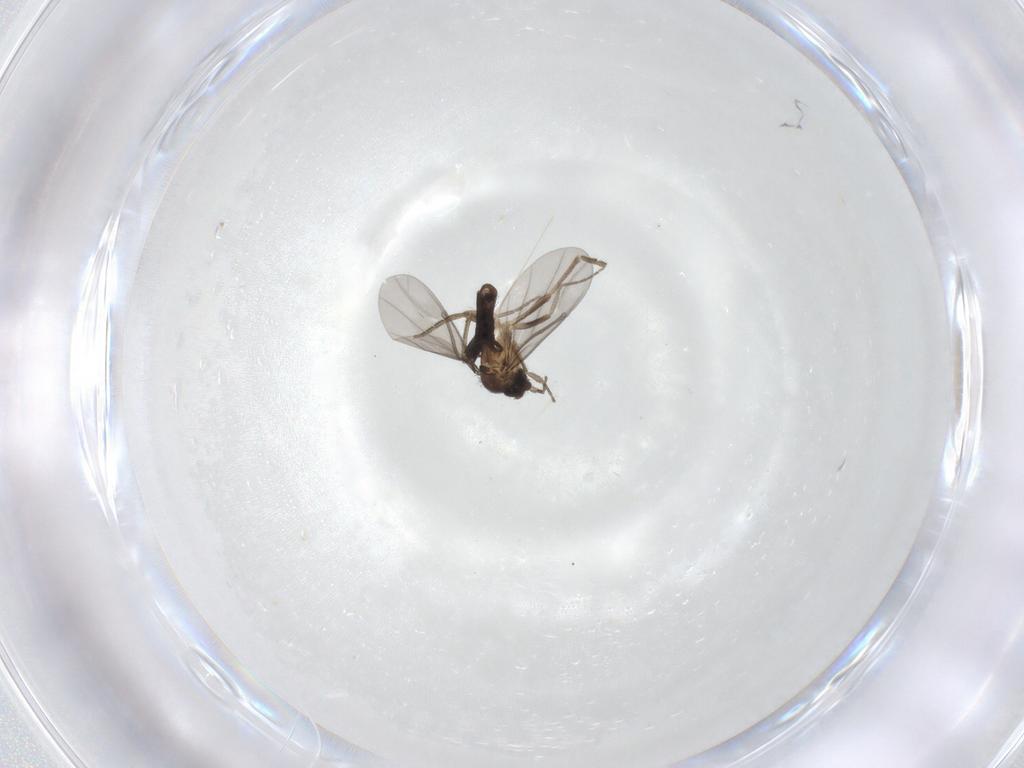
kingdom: Animalia
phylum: Arthropoda
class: Insecta
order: Diptera
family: Phoridae
